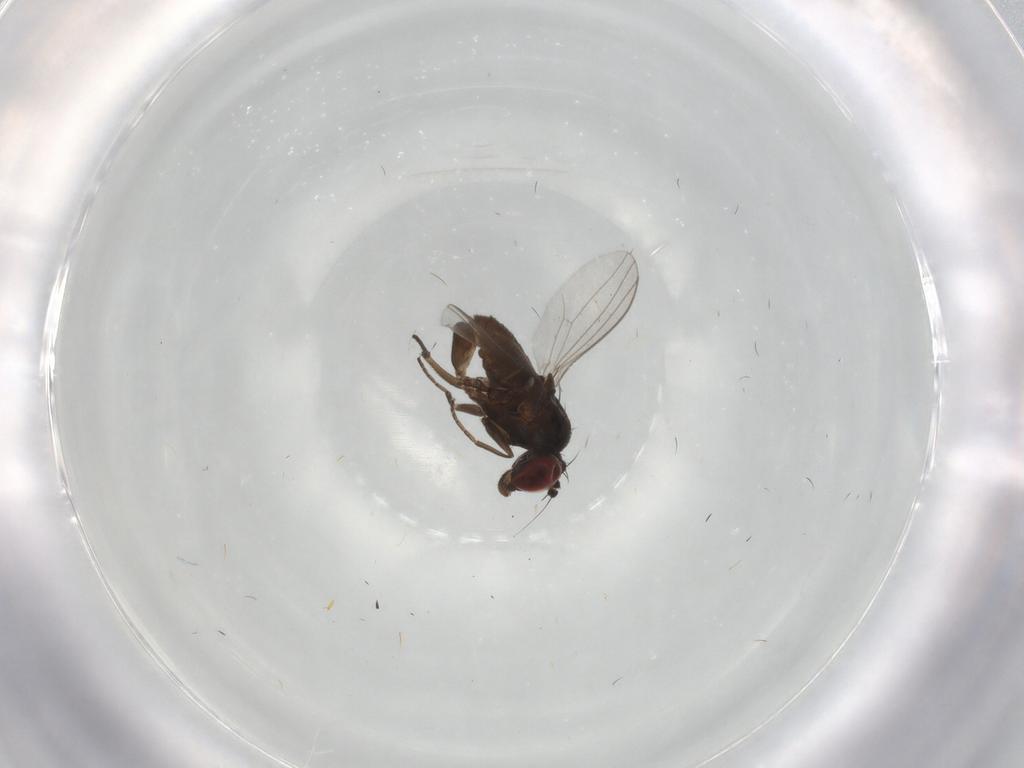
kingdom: Animalia
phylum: Arthropoda
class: Insecta
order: Diptera
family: Dolichopodidae
